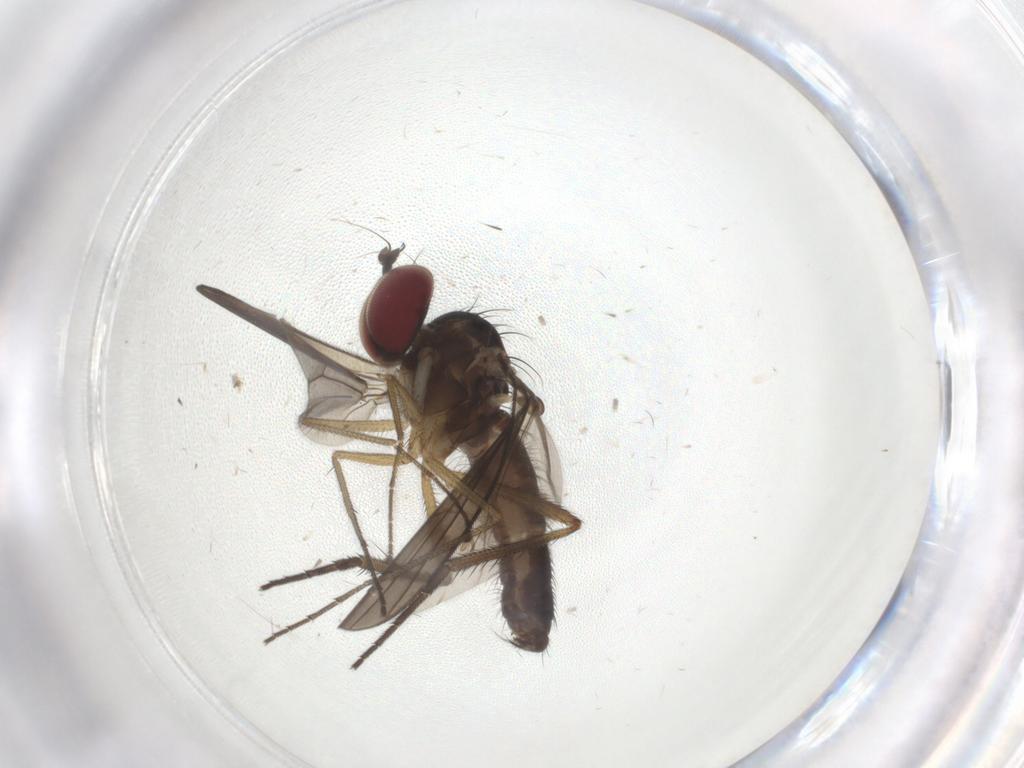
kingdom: Animalia
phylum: Arthropoda
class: Insecta
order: Diptera
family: Dolichopodidae
